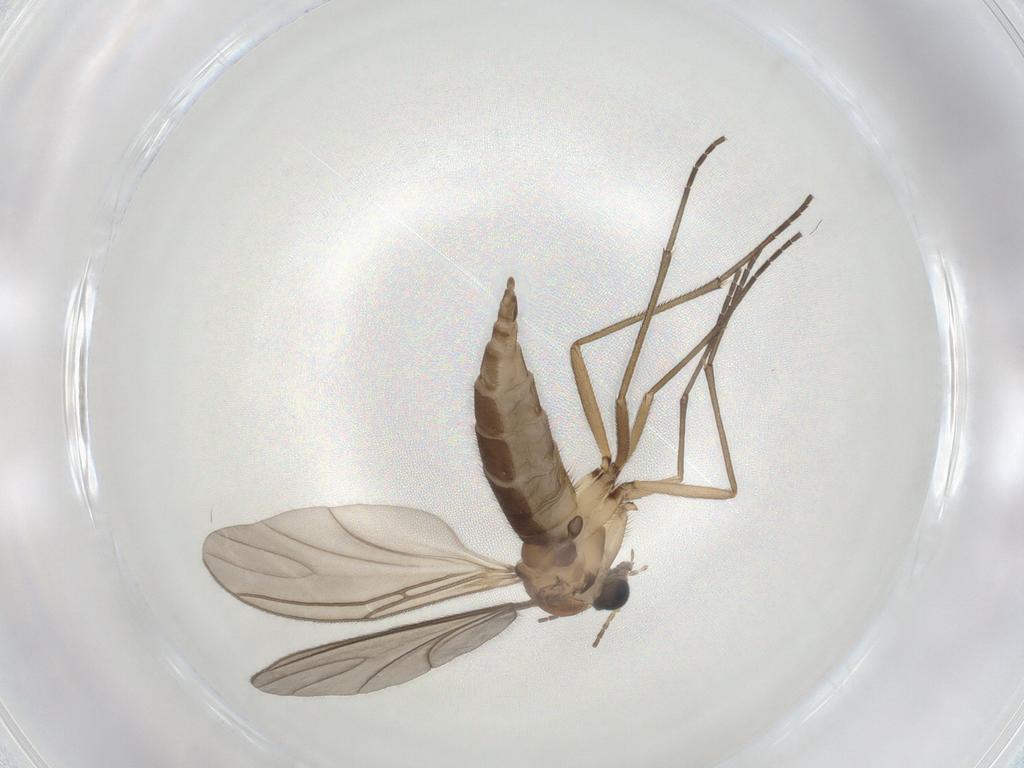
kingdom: Animalia
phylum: Arthropoda
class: Insecta
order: Diptera
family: Sciaridae
